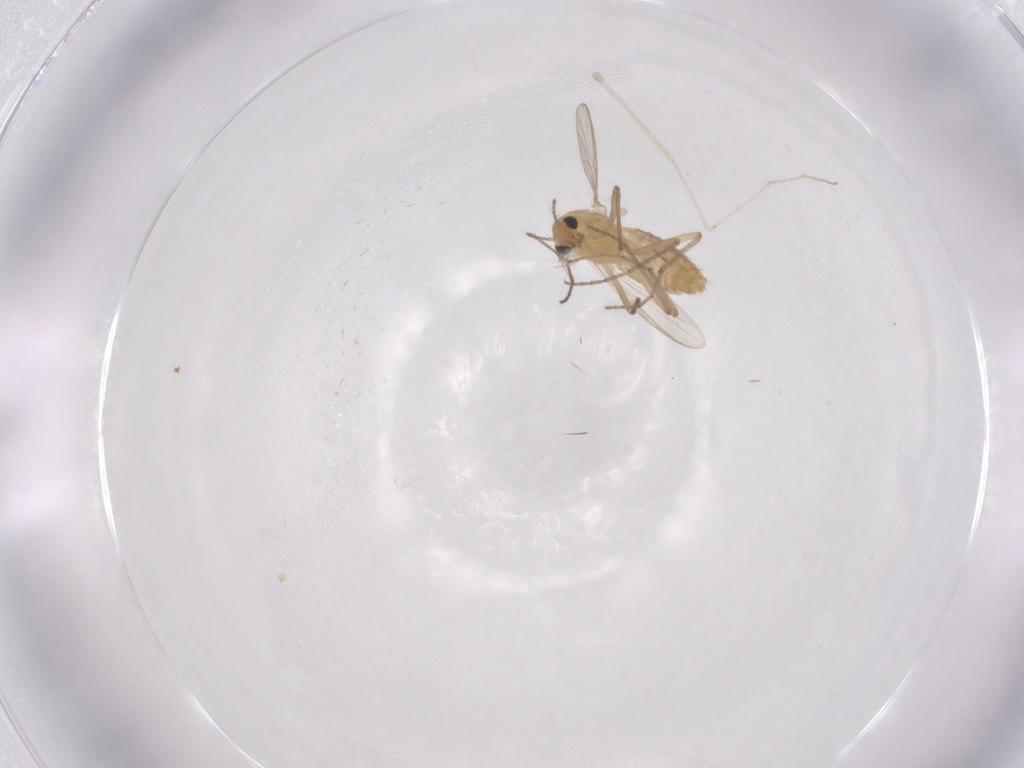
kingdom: Animalia
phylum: Arthropoda
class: Insecta
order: Diptera
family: Chironomidae
